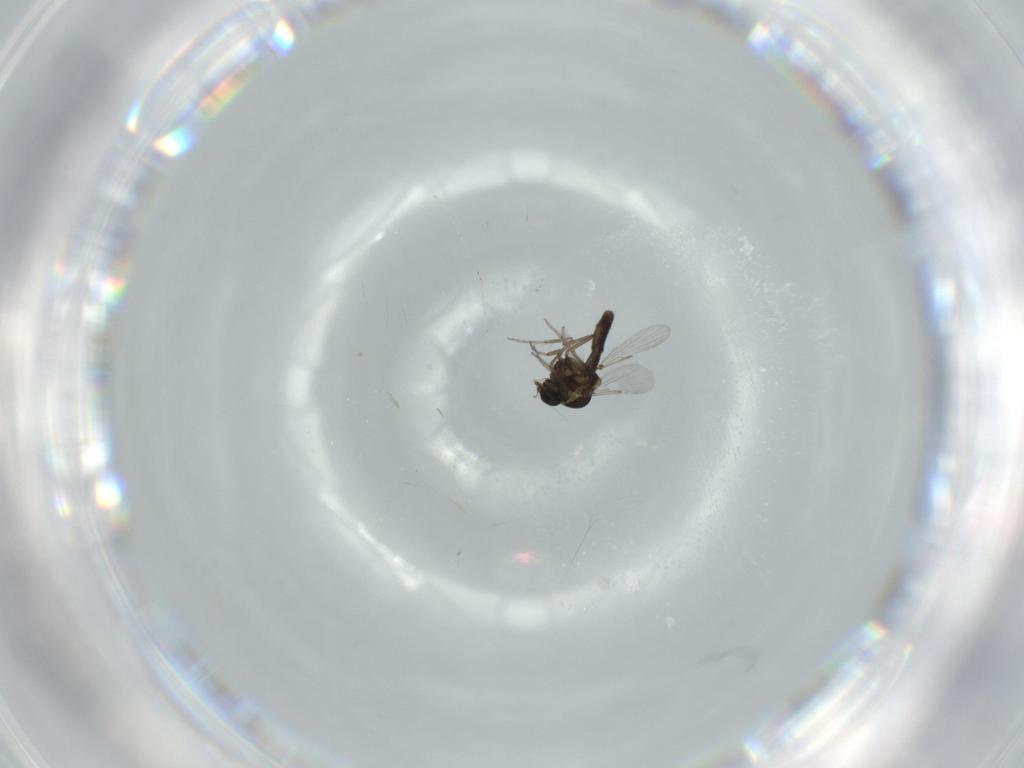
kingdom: Animalia
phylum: Arthropoda
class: Insecta
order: Diptera
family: Ceratopogonidae
